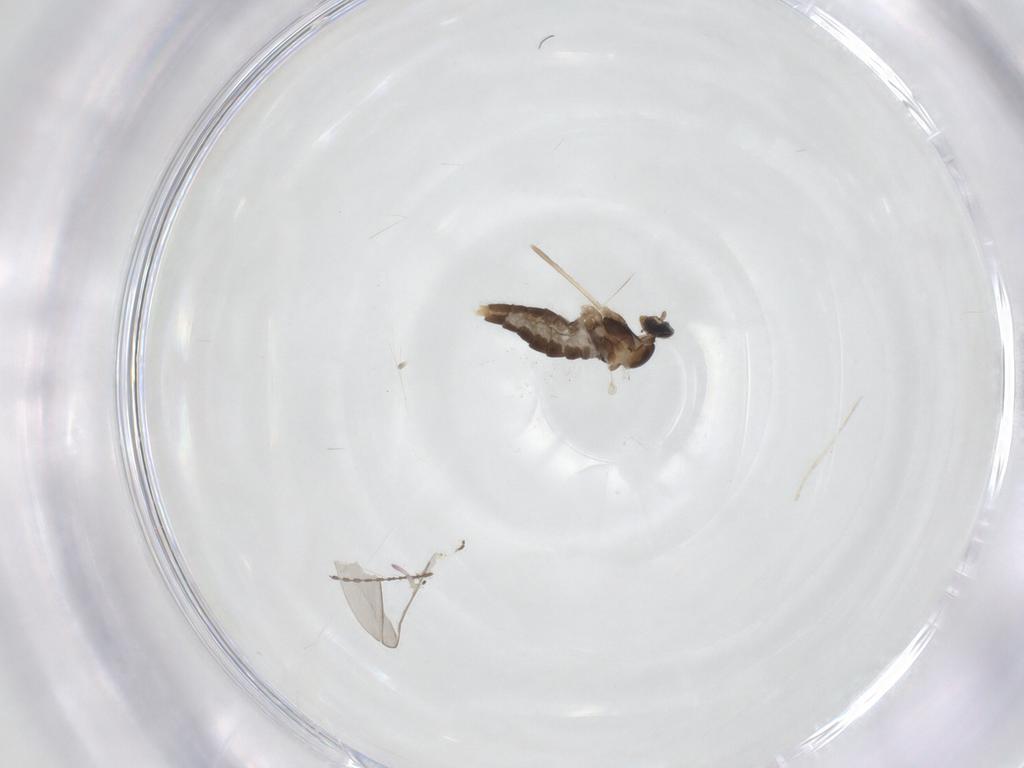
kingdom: Animalia
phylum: Arthropoda
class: Insecta
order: Diptera
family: Cecidomyiidae
